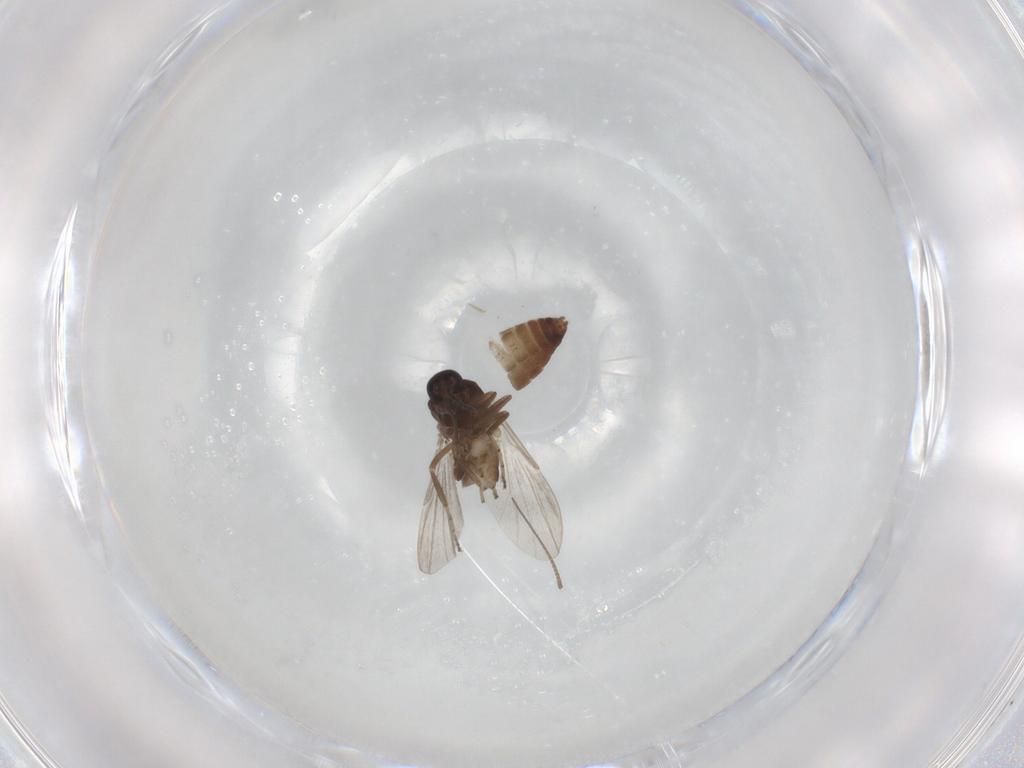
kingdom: Animalia
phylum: Arthropoda
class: Insecta
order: Diptera
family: Ceratopogonidae
